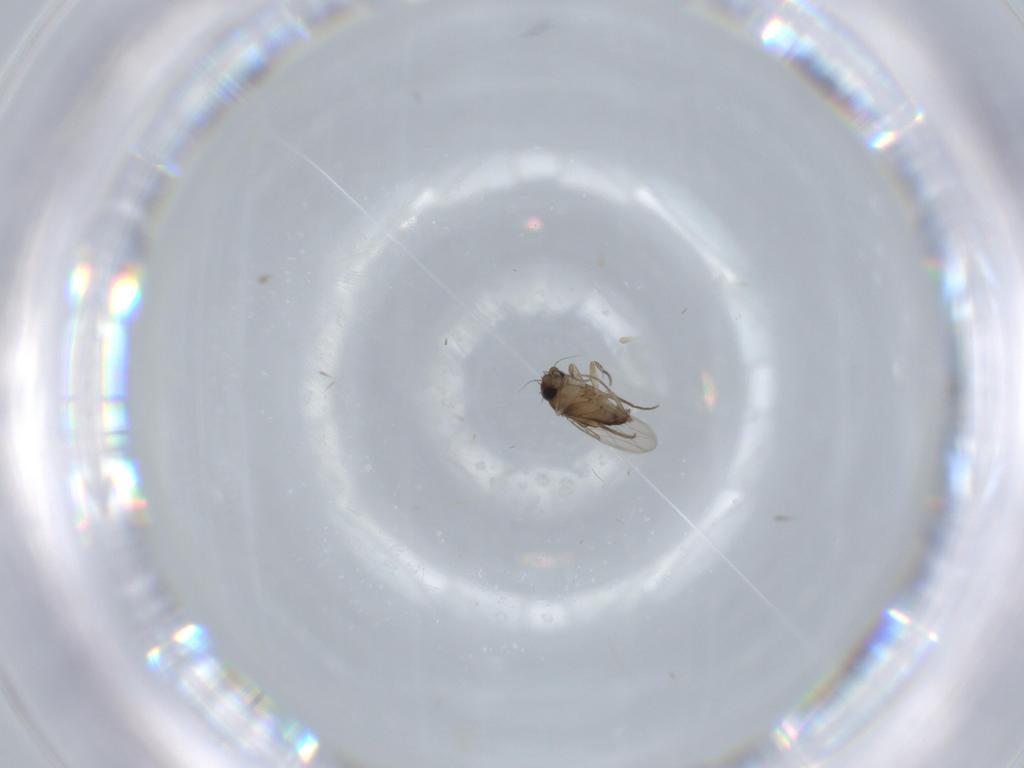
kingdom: Animalia
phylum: Arthropoda
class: Insecta
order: Diptera
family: Phoridae
